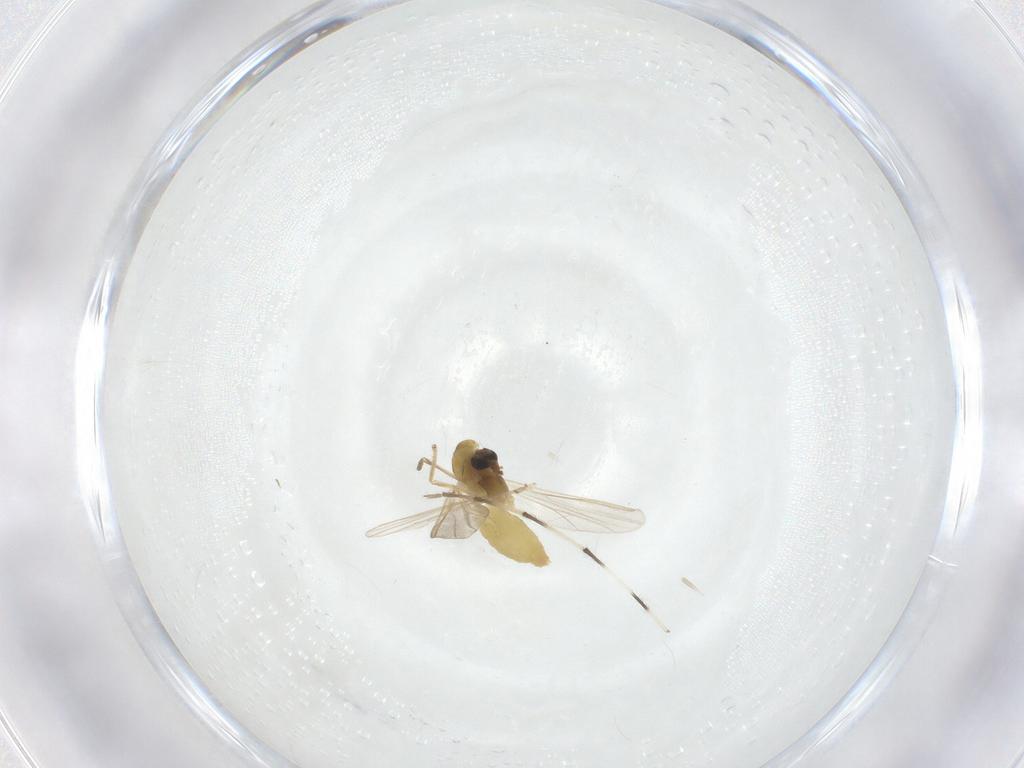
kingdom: Animalia
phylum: Arthropoda
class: Insecta
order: Diptera
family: Chironomidae
